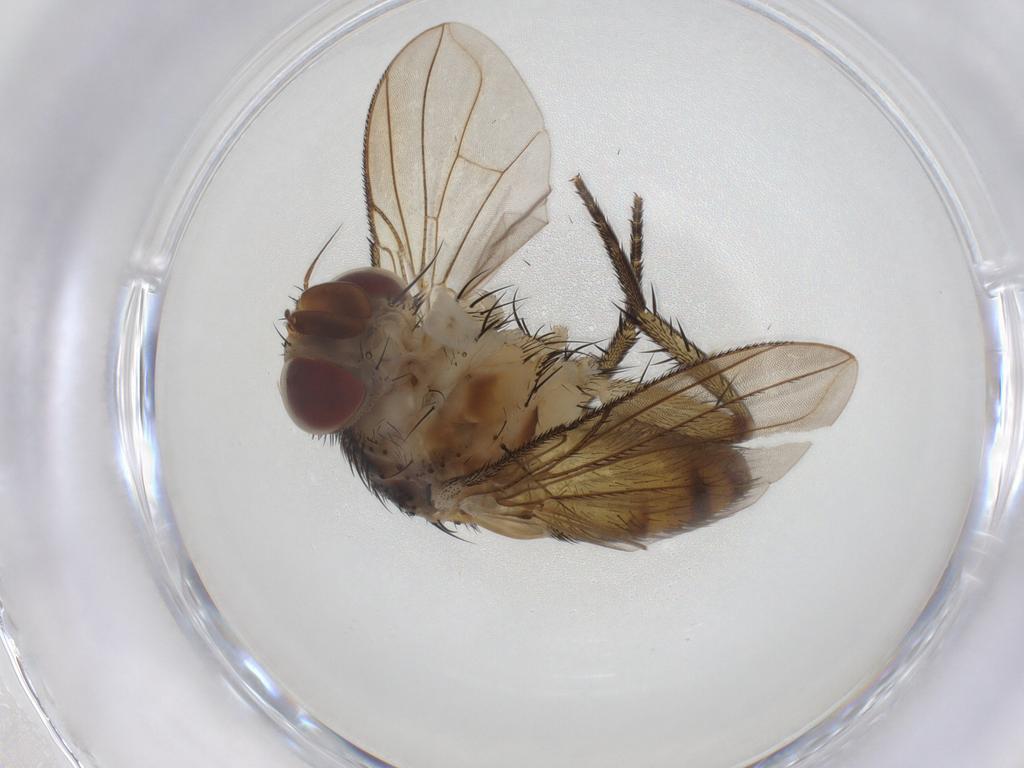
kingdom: Animalia
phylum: Arthropoda
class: Insecta
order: Diptera
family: Tachinidae
